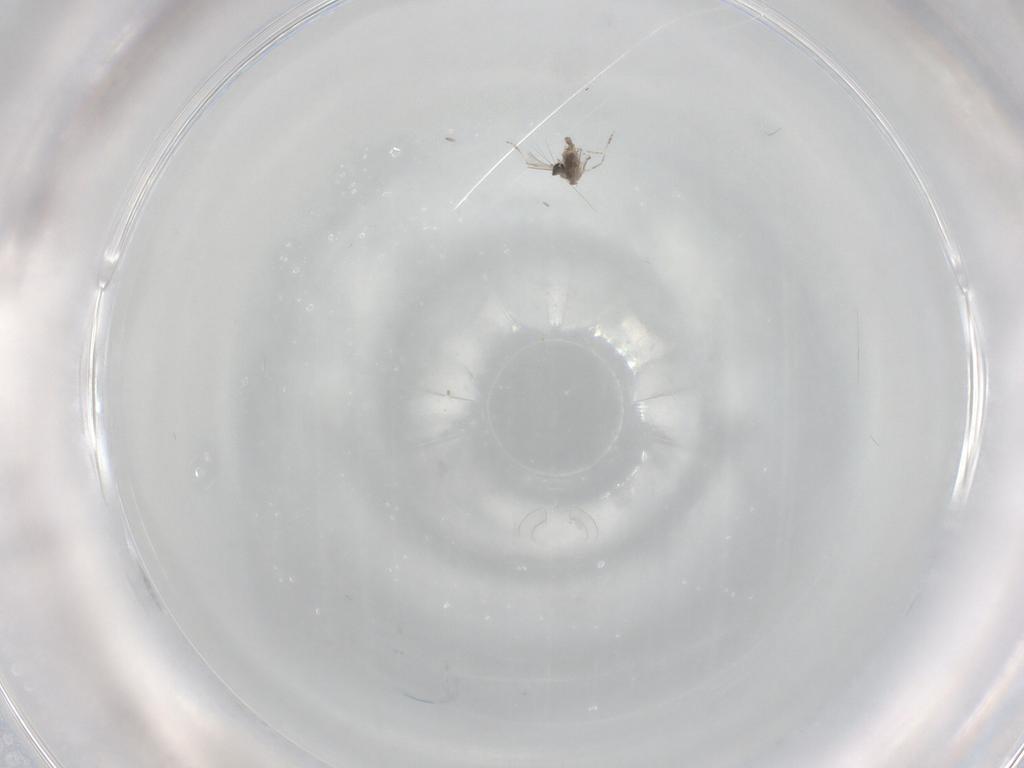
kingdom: Animalia
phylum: Arthropoda
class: Insecta
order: Diptera
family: Cecidomyiidae
